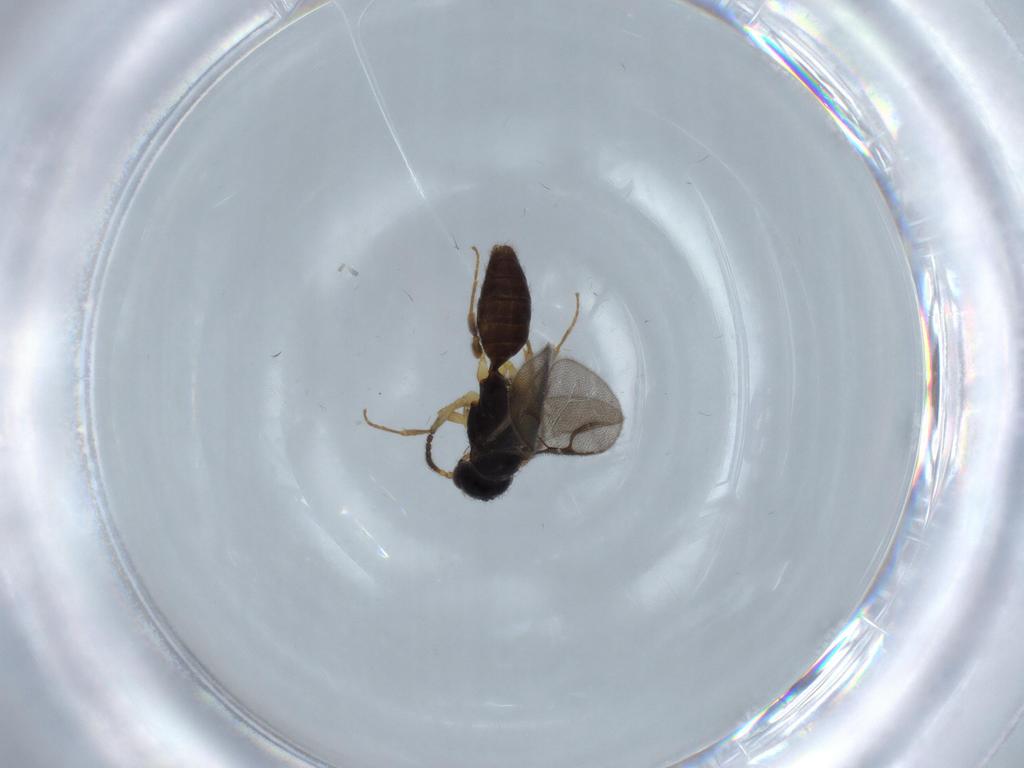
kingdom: Animalia
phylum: Arthropoda
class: Insecta
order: Hymenoptera
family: Bethylidae
